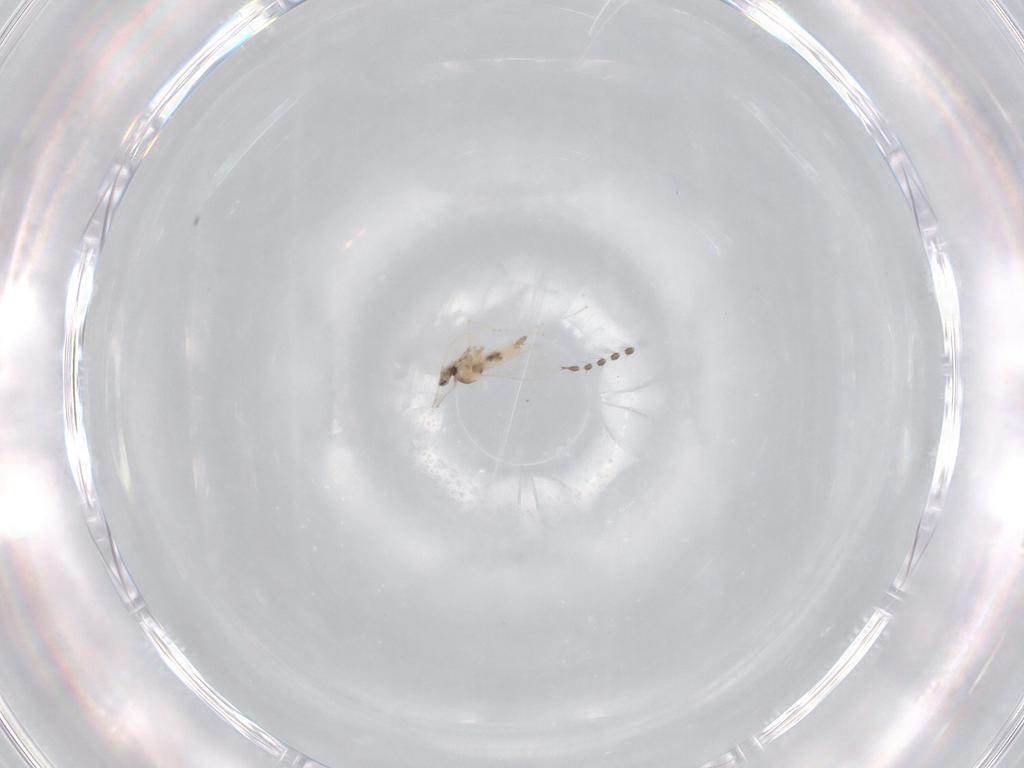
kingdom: Animalia
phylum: Arthropoda
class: Insecta
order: Diptera
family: Cecidomyiidae
